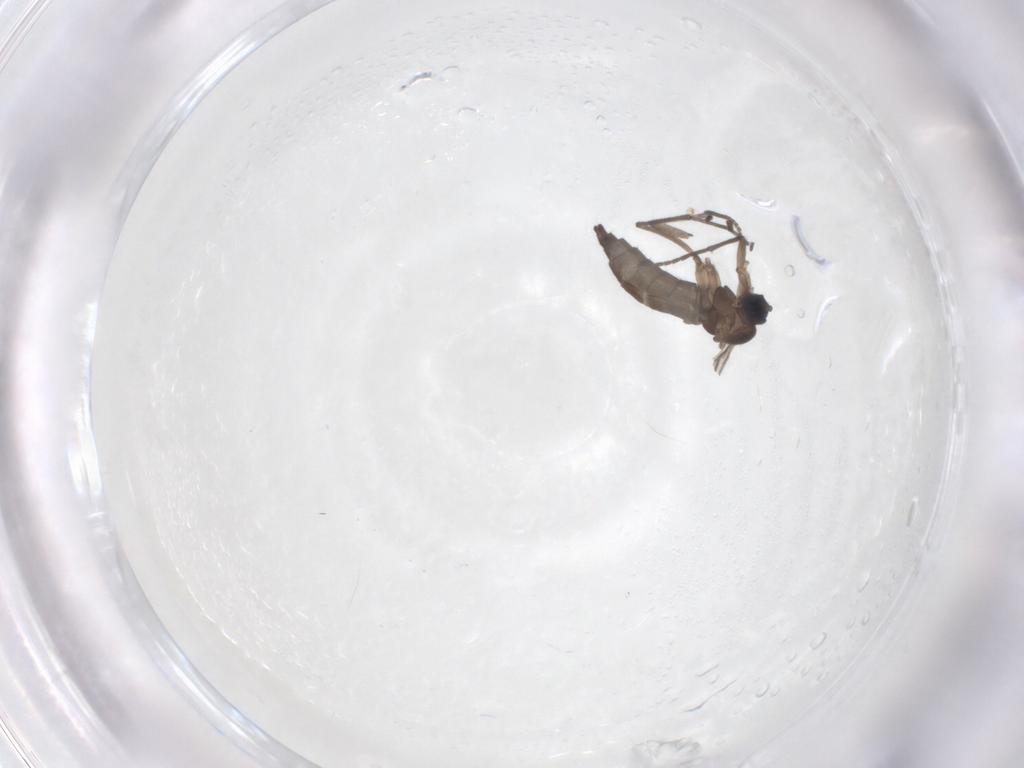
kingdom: Animalia
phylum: Arthropoda
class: Insecta
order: Diptera
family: Sciaridae
